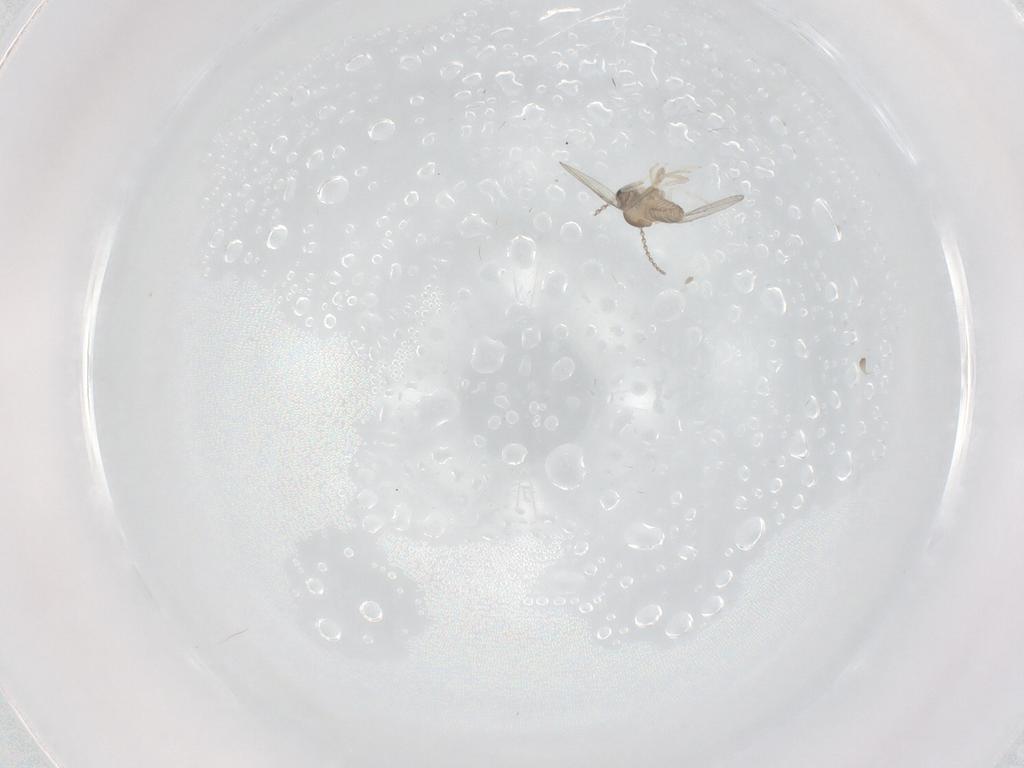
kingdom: Animalia
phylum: Arthropoda
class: Insecta
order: Diptera
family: Cecidomyiidae
